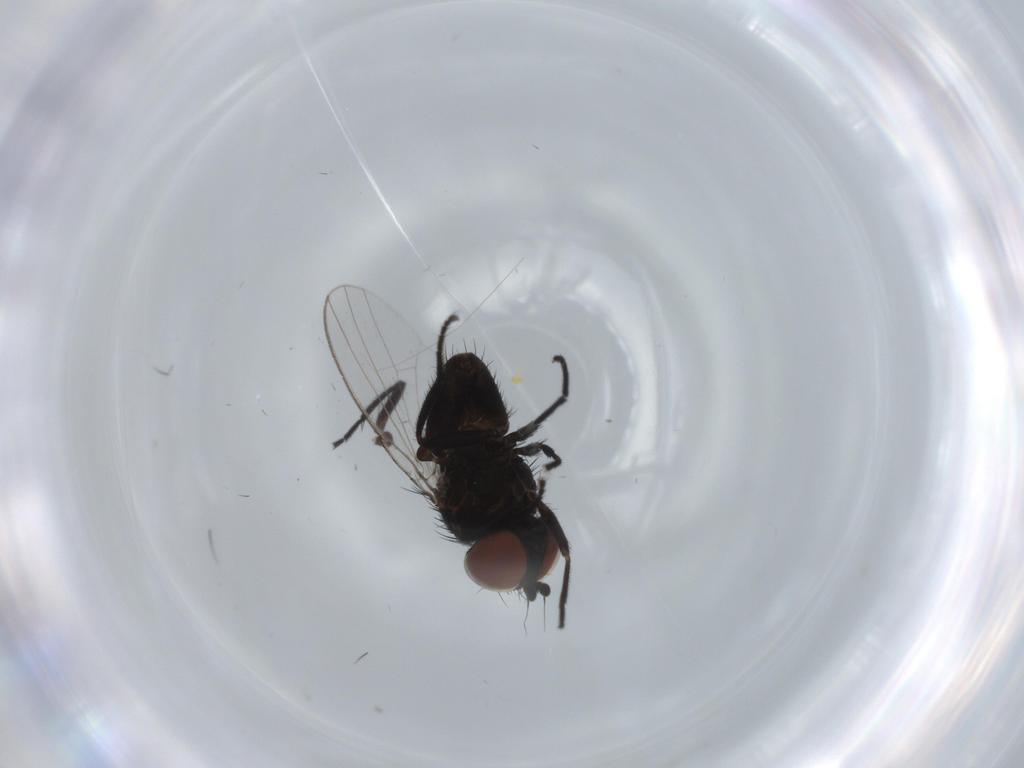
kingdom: Animalia
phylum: Arthropoda
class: Insecta
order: Diptera
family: Milichiidae
